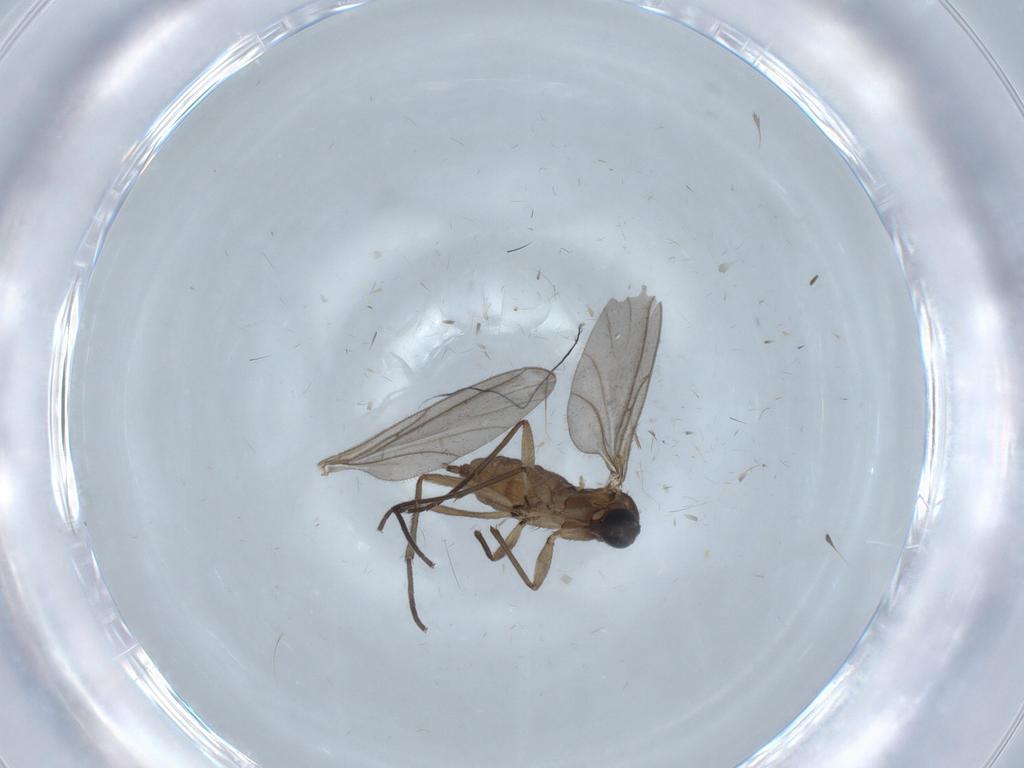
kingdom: Animalia
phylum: Arthropoda
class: Insecta
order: Diptera
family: Sciaridae
